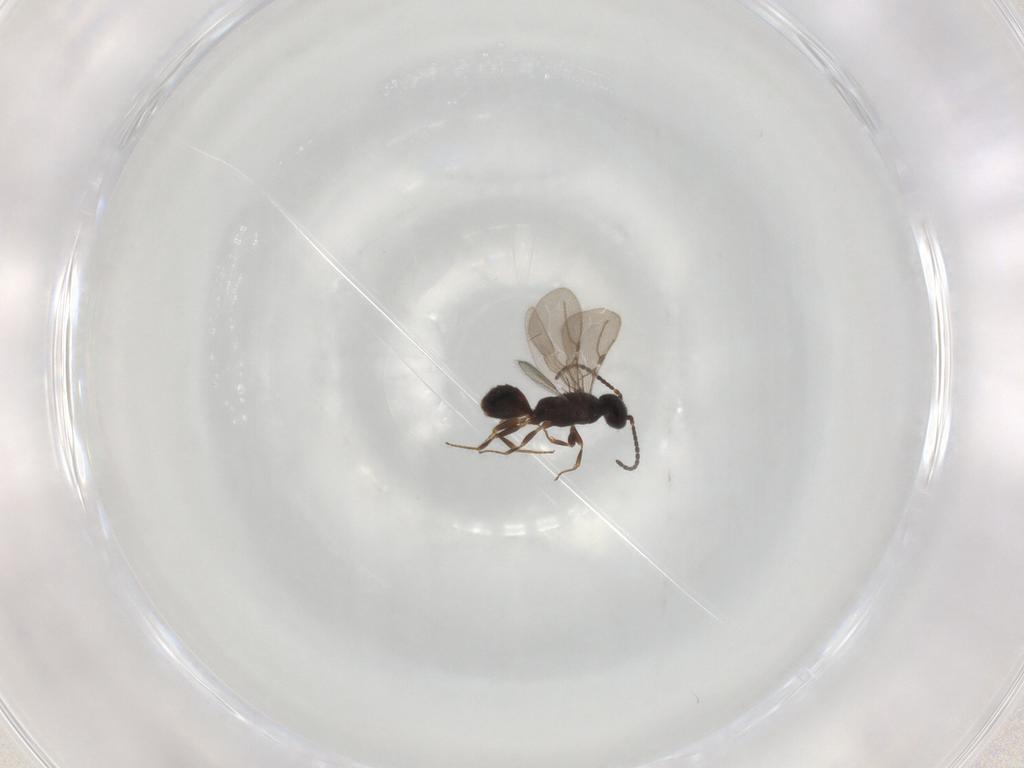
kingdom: Animalia
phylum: Arthropoda
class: Insecta
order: Hymenoptera
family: Bethylidae
